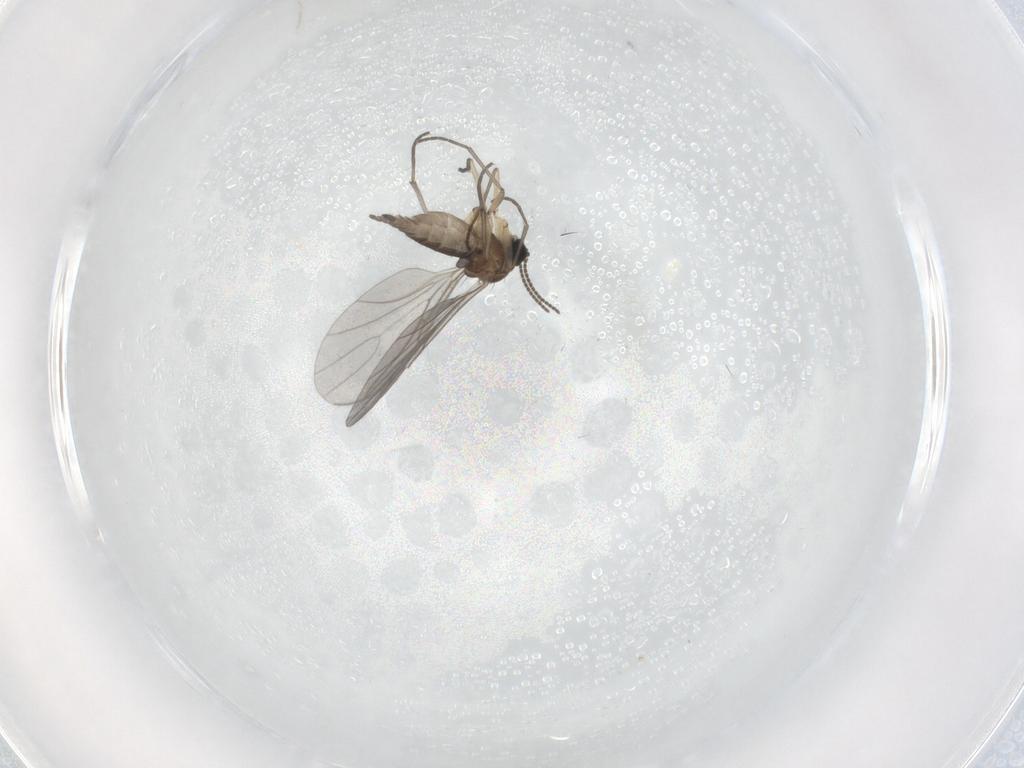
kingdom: Animalia
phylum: Arthropoda
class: Insecta
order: Diptera
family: Sciaridae
